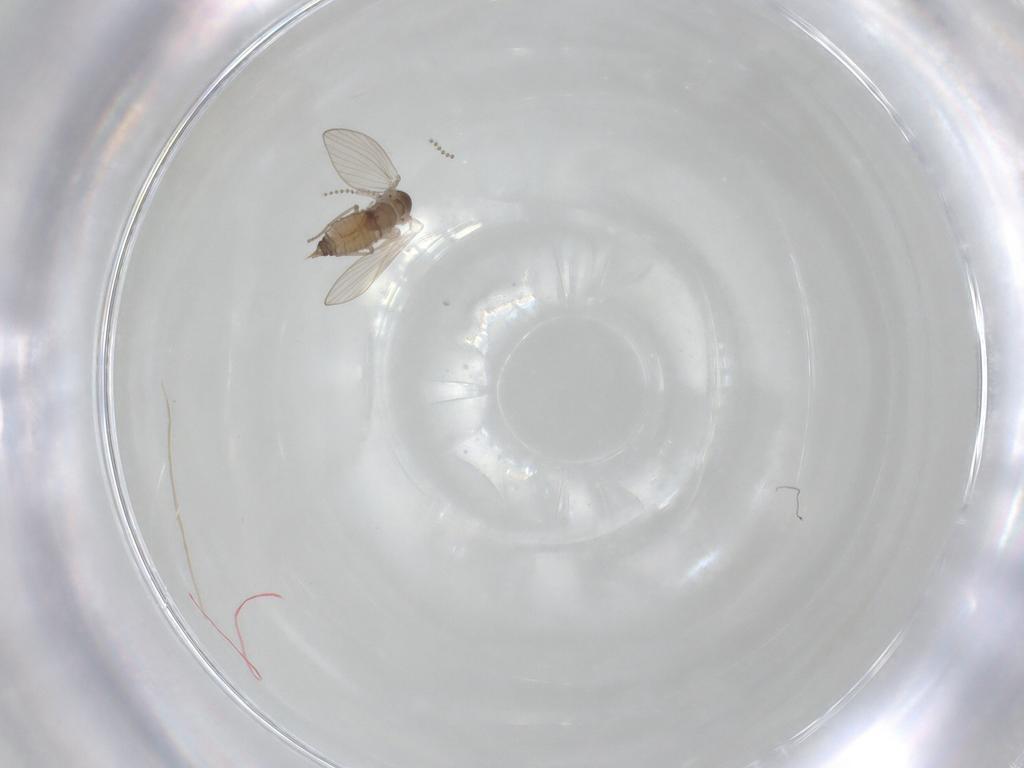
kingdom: Animalia
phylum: Arthropoda
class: Insecta
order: Diptera
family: Psychodidae
